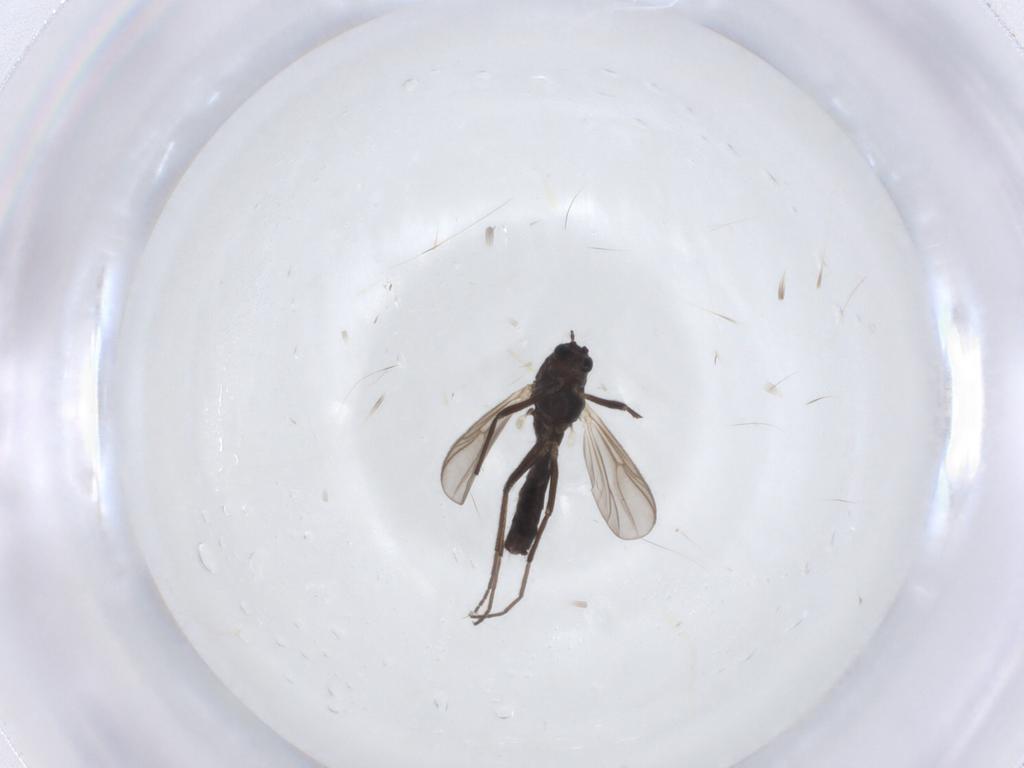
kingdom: Animalia
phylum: Arthropoda
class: Insecta
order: Diptera
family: Chironomidae
